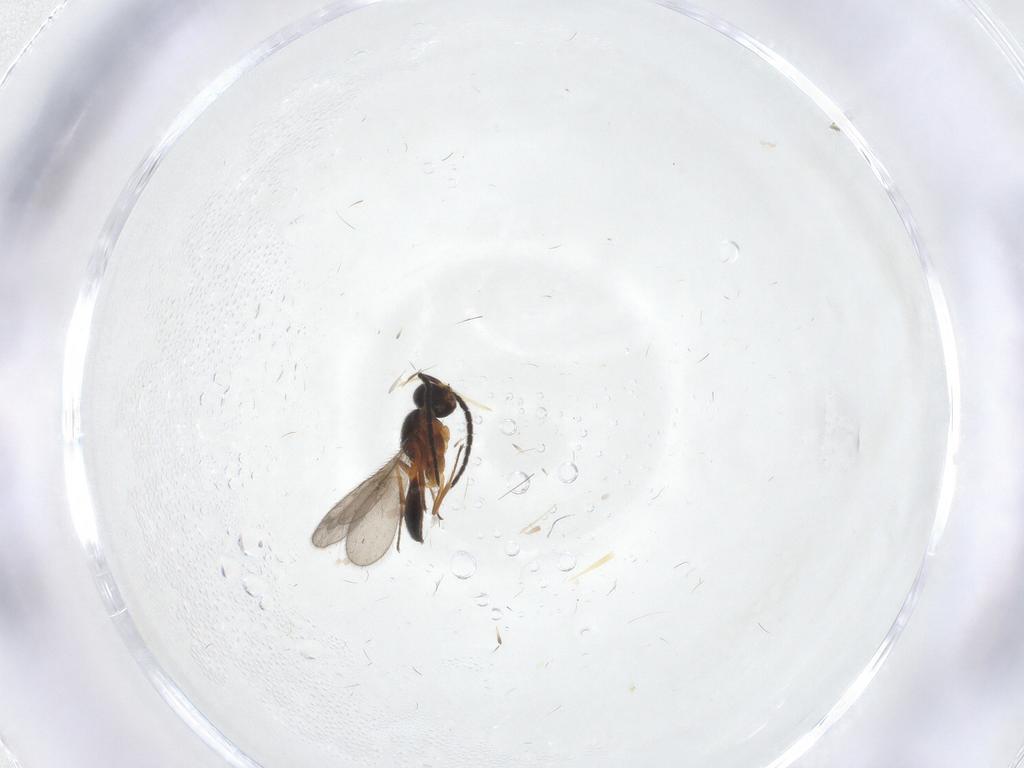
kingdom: Animalia
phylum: Arthropoda
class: Insecta
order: Hymenoptera
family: Scelionidae
